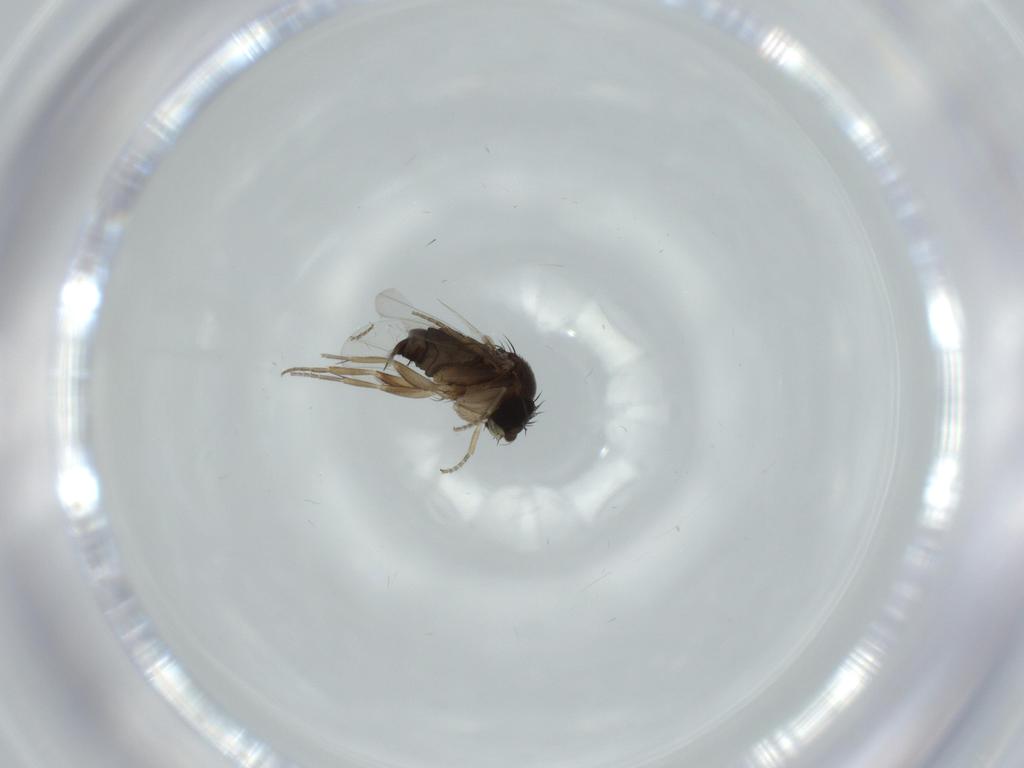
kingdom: Animalia
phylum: Arthropoda
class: Insecta
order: Diptera
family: Phoridae
